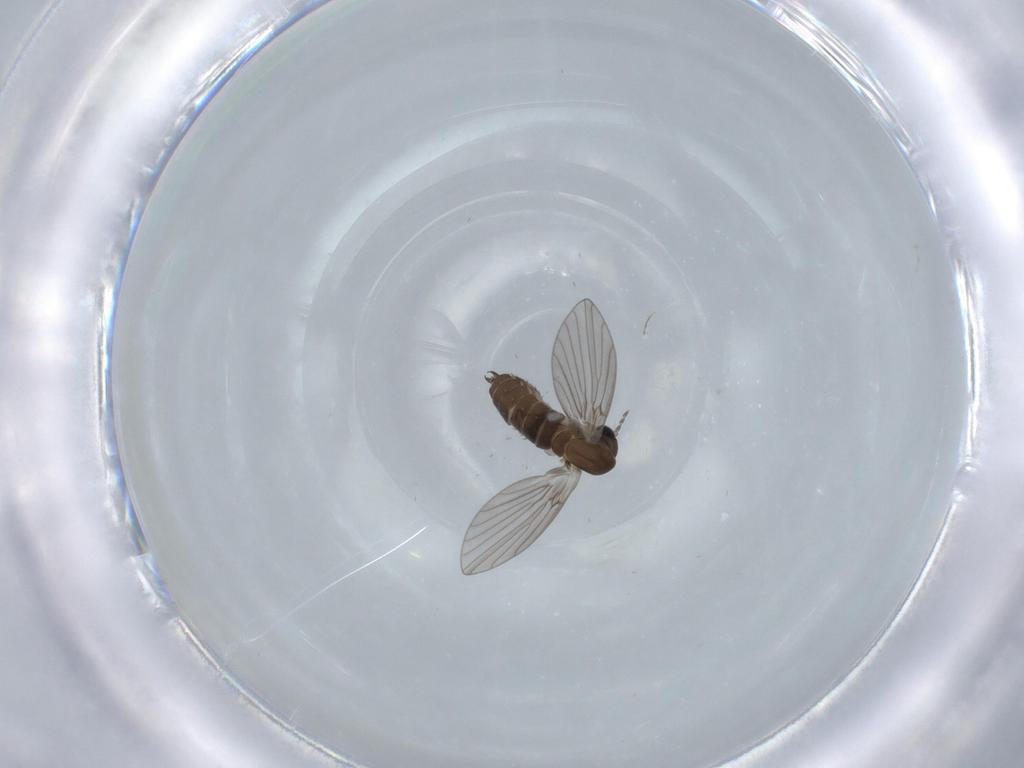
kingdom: Animalia
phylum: Arthropoda
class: Insecta
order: Diptera
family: Psychodidae
